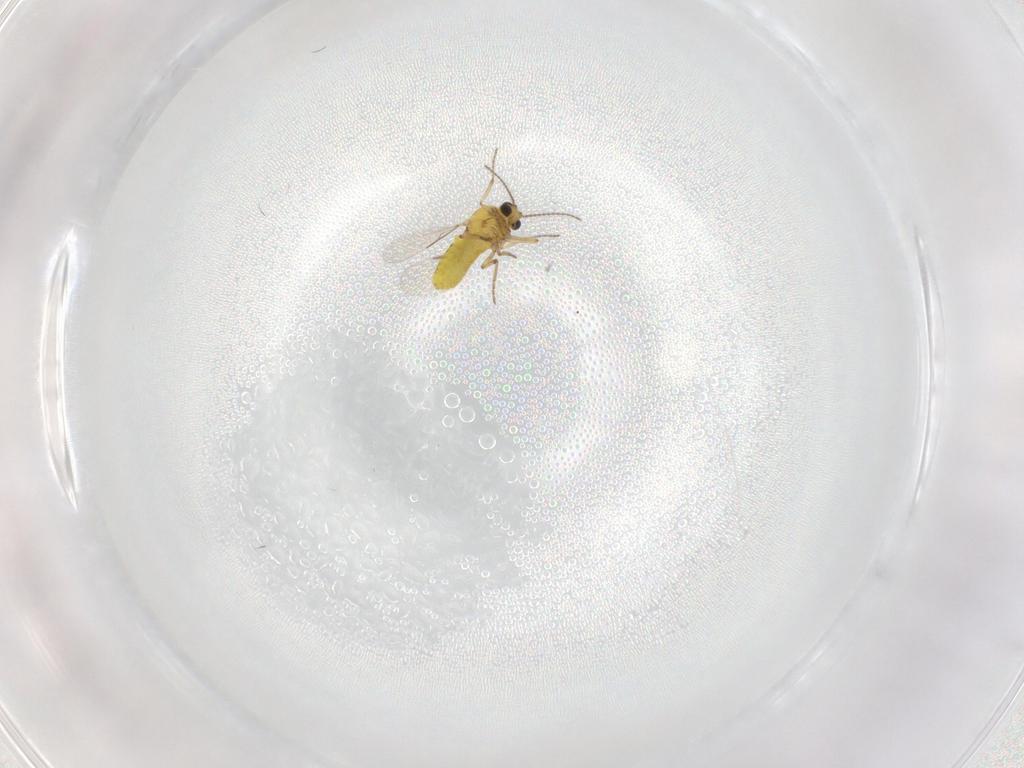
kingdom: Animalia
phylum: Arthropoda
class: Insecta
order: Diptera
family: Ceratopogonidae
